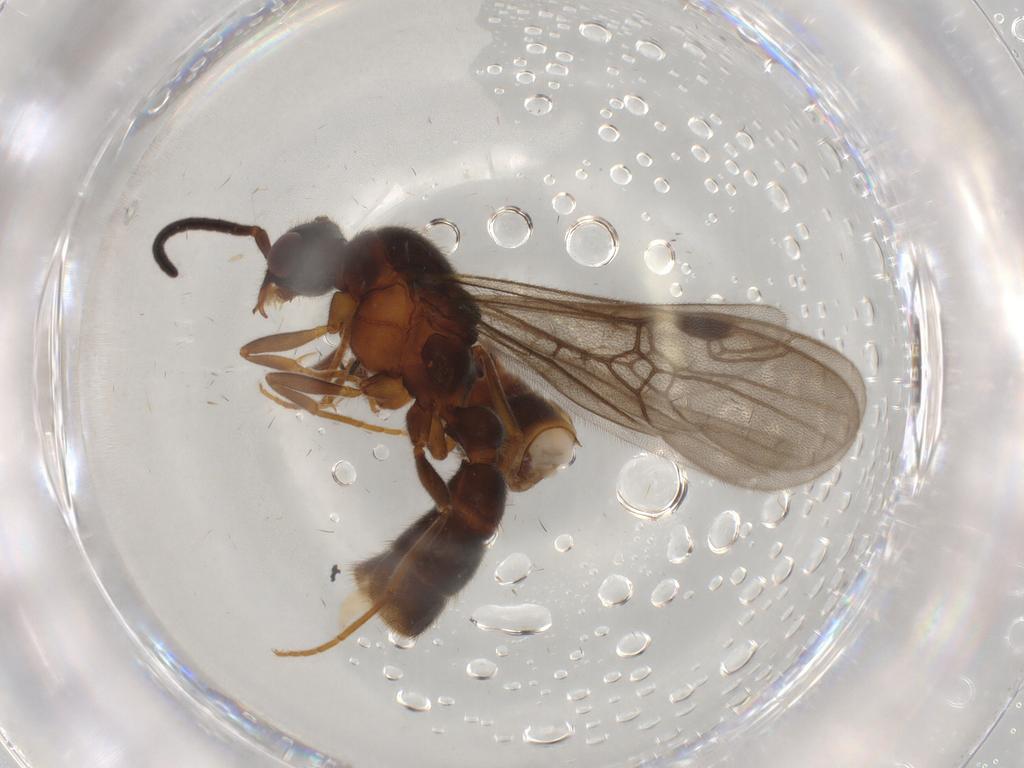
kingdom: Animalia
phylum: Arthropoda
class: Insecta
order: Hymenoptera
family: Formicidae
